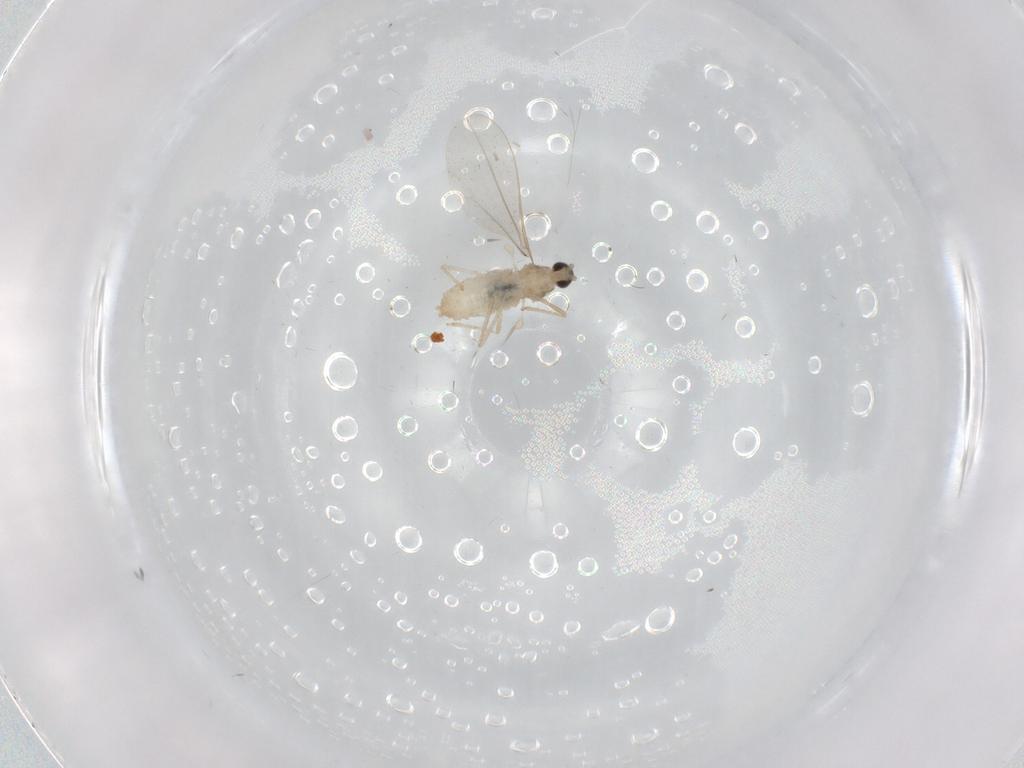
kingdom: Animalia
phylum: Arthropoda
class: Insecta
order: Diptera
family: Cecidomyiidae
